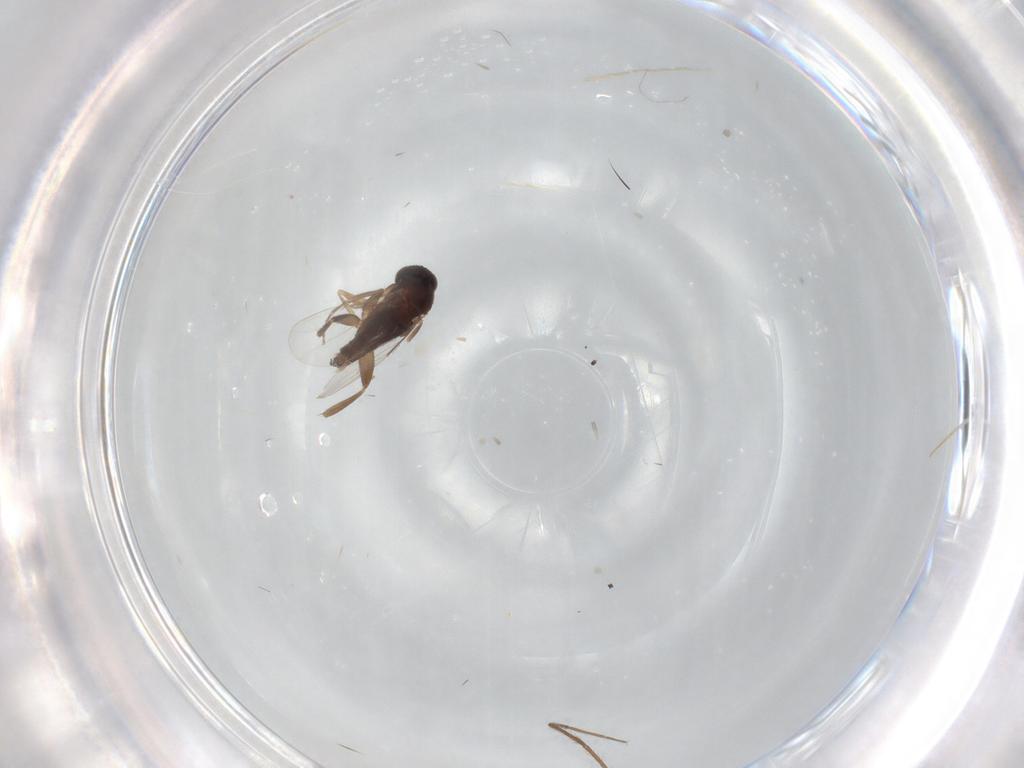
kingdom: Animalia
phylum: Arthropoda
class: Insecta
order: Diptera
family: Phoridae
